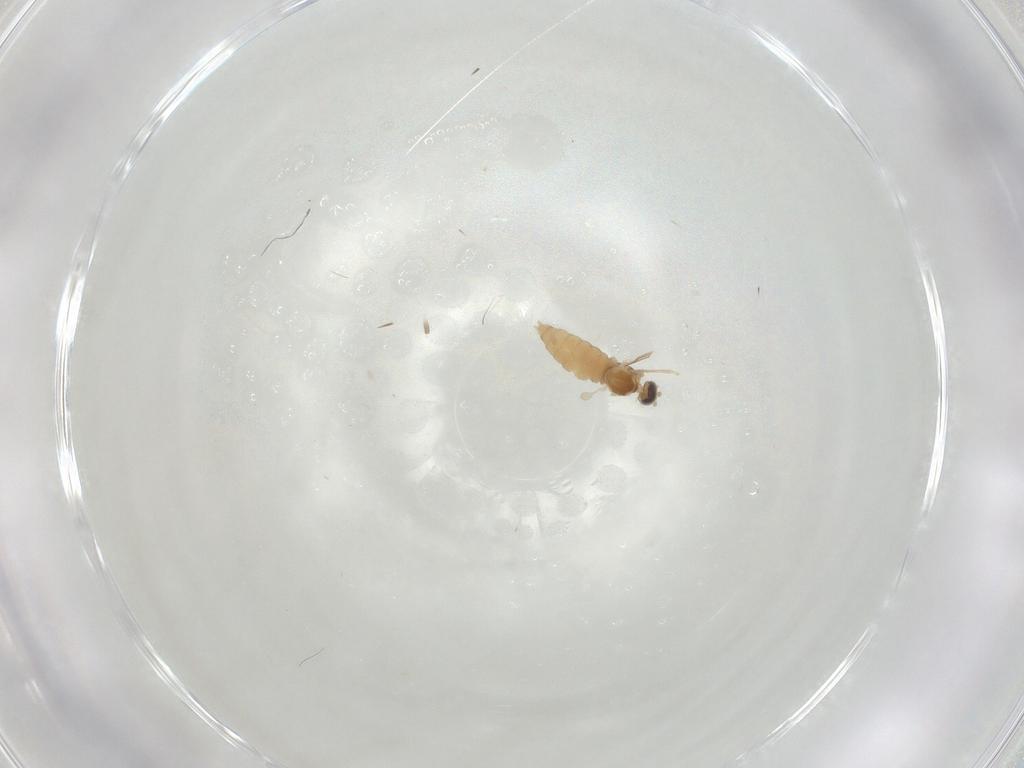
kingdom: Animalia
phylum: Arthropoda
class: Insecta
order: Diptera
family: Cecidomyiidae
